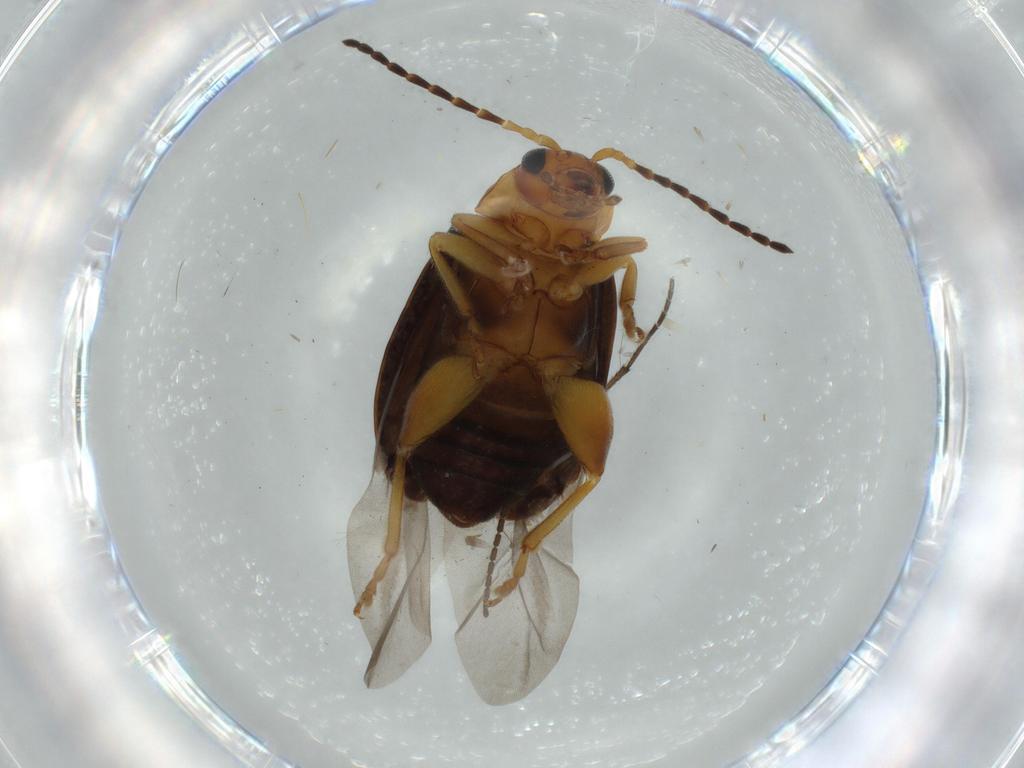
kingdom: Animalia
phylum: Arthropoda
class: Insecta
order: Coleoptera
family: Chrysomelidae
